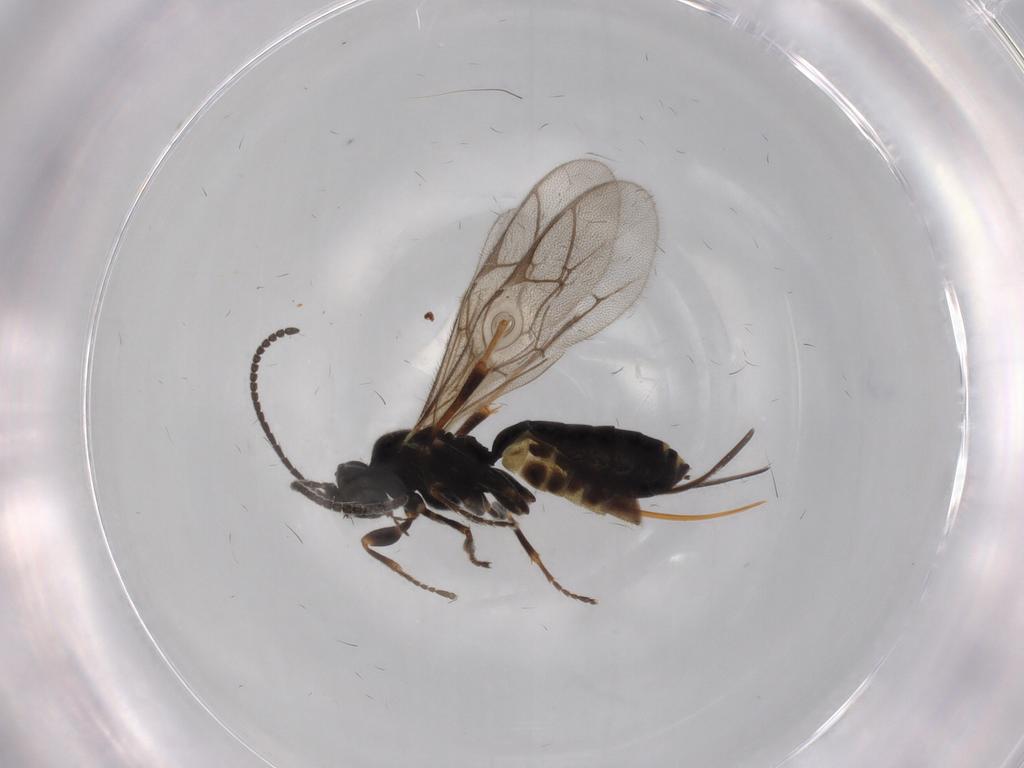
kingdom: Animalia
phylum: Arthropoda
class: Insecta
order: Hymenoptera
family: Ichneumonidae
